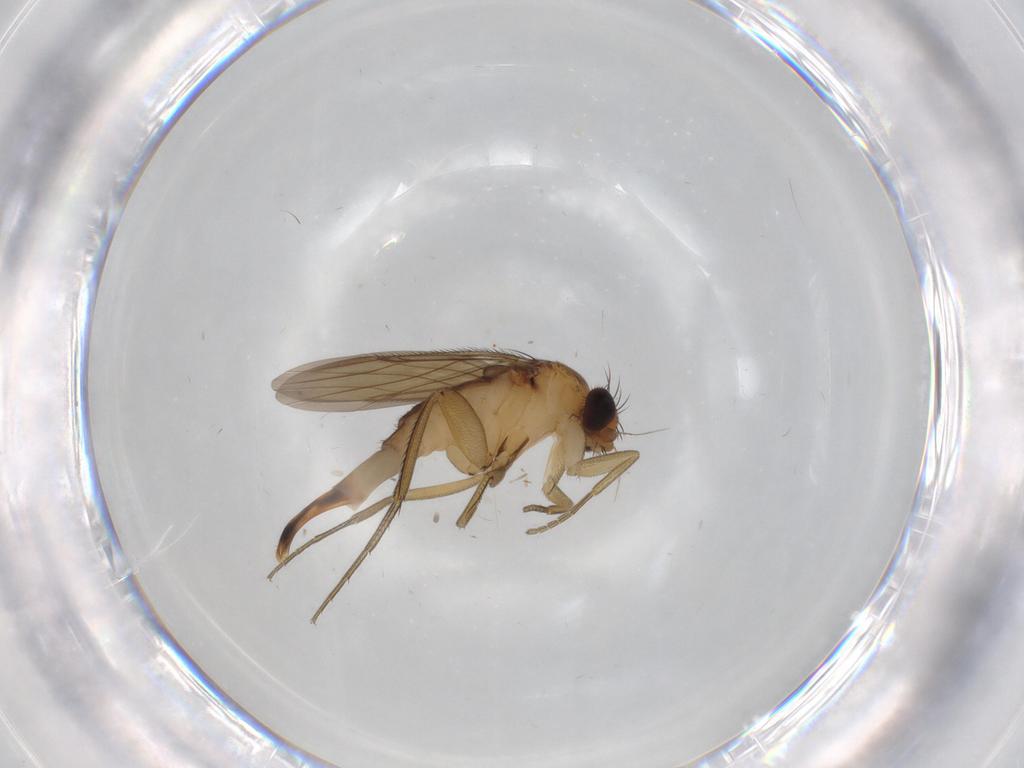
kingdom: Animalia
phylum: Arthropoda
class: Insecta
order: Diptera
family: Phoridae
